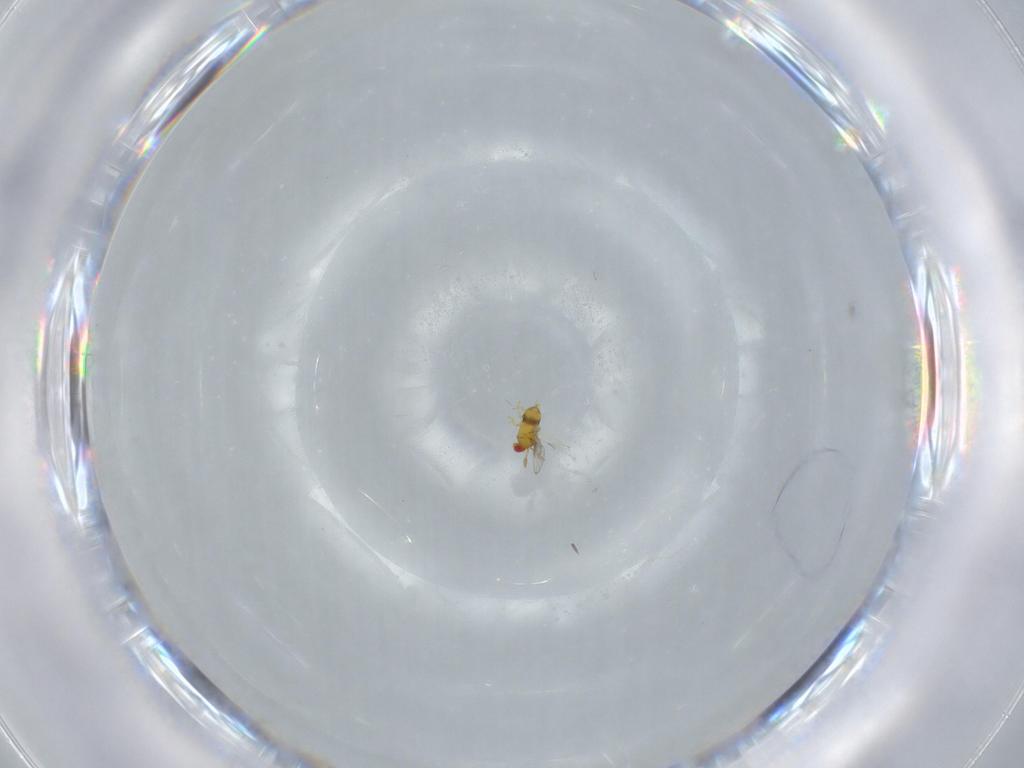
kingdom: Animalia
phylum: Arthropoda
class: Insecta
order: Hymenoptera
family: Trichogrammatidae
